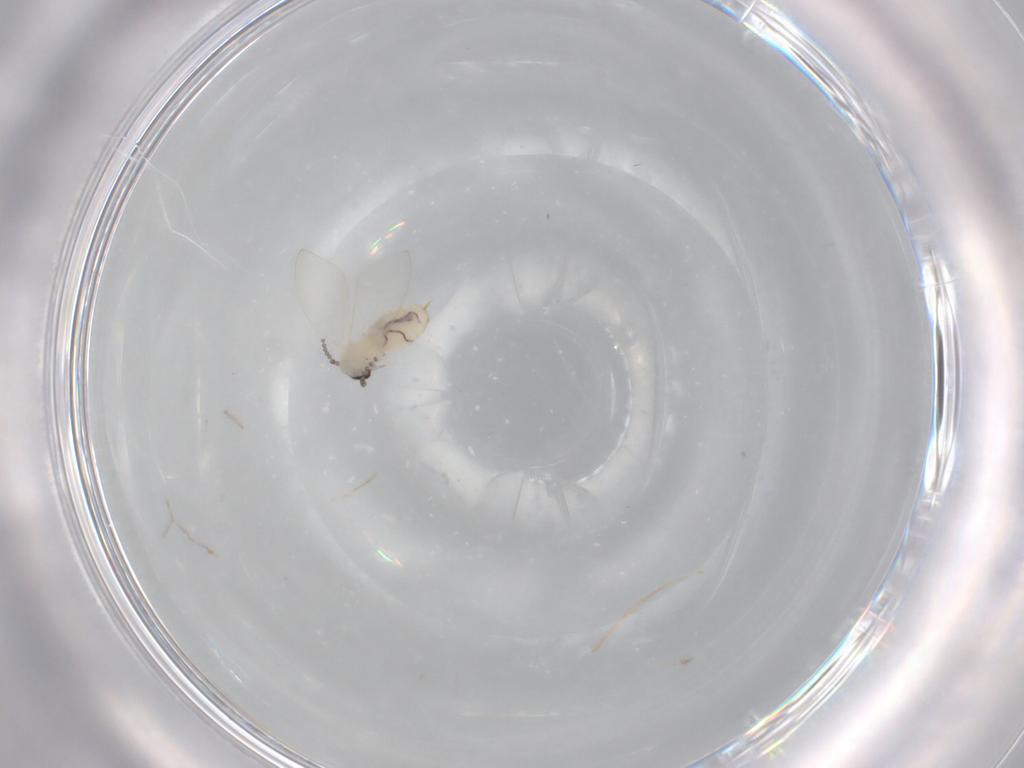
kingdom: Animalia
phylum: Arthropoda
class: Insecta
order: Diptera
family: Psychodidae
